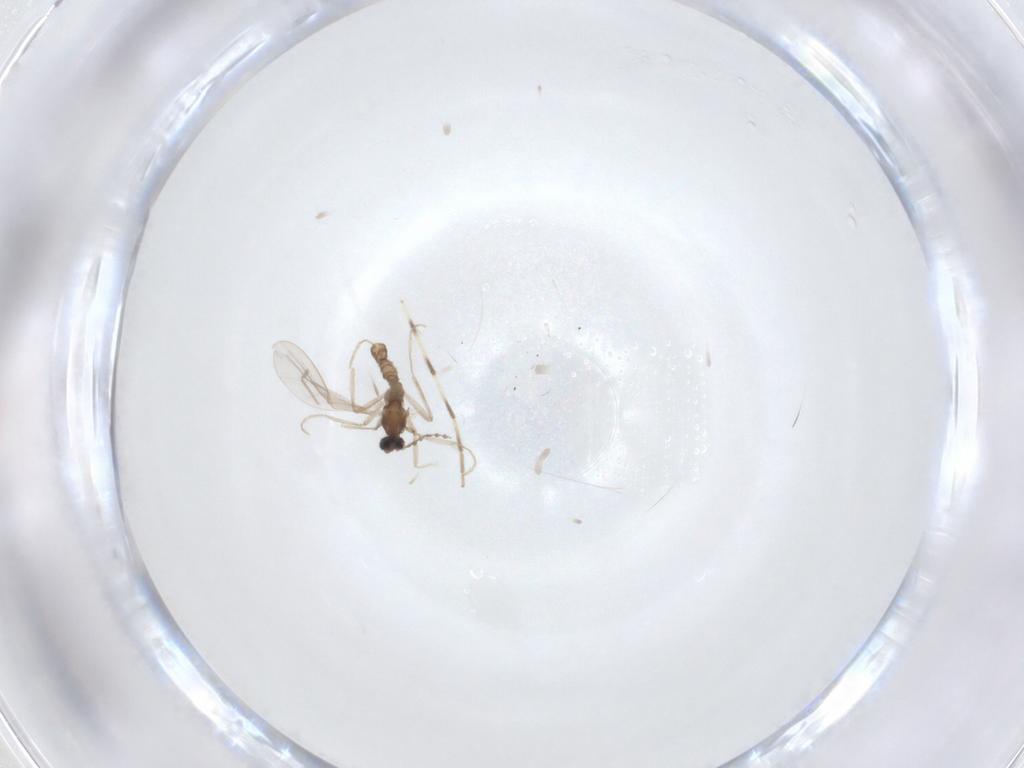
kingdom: Animalia
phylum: Arthropoda
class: Insecta
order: Diptera
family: Cecidomyiidae
